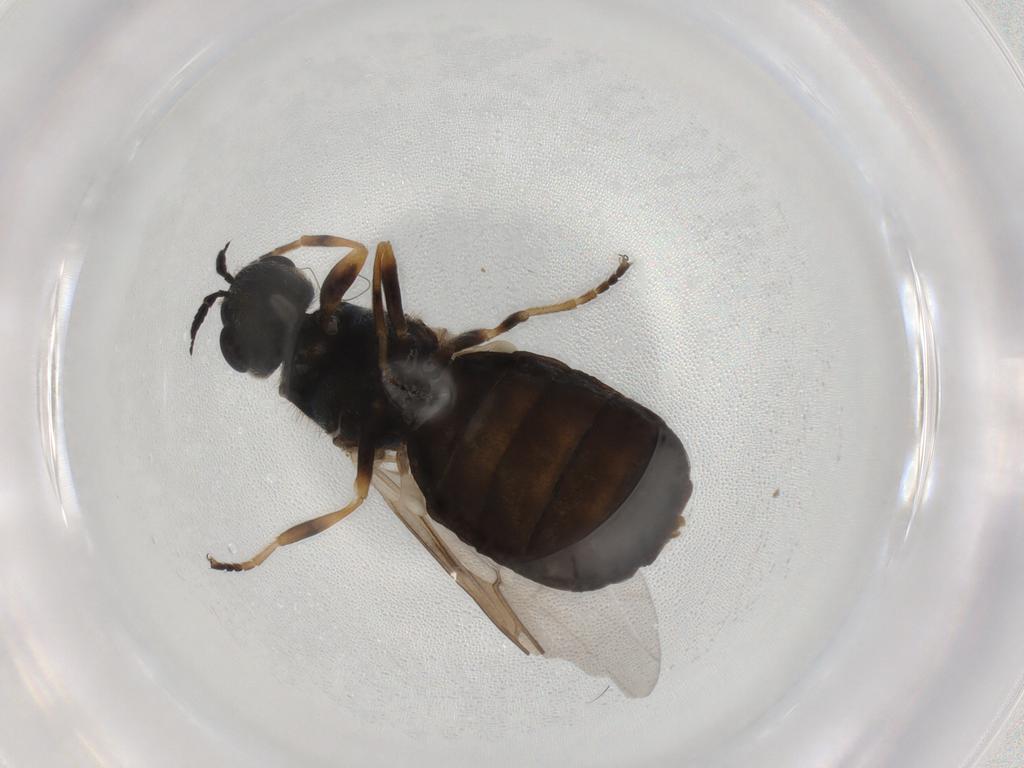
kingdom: Animalia
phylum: Arthropoda
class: Insecta
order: Diptera
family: Stratiomyidae
